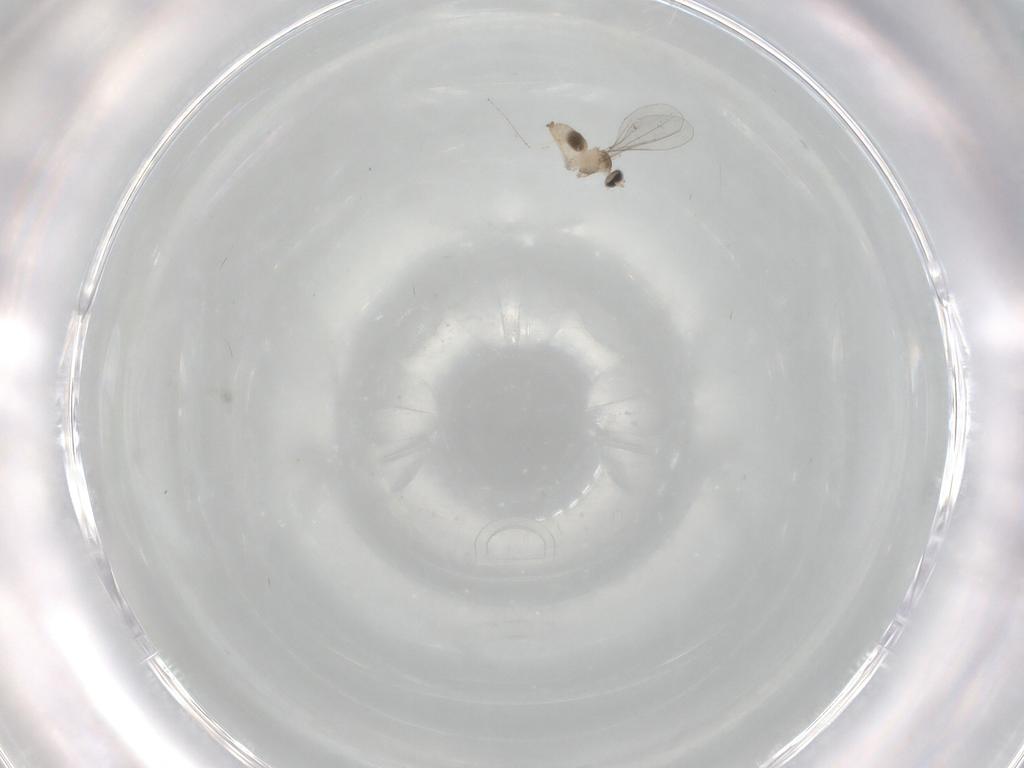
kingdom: Animalia
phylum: Arthropoda
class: Insecta
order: Diptera
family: Cecidomyiidae
